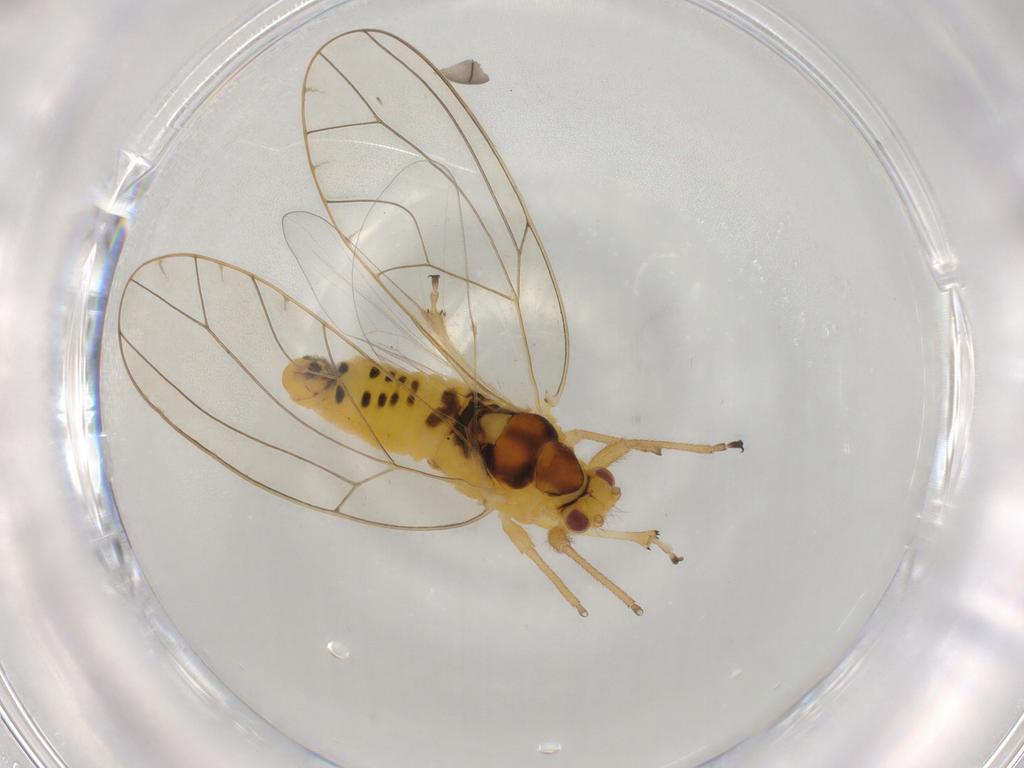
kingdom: Animalia
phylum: Arthropoda
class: Insecta
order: Hemiptera
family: Triozidae
